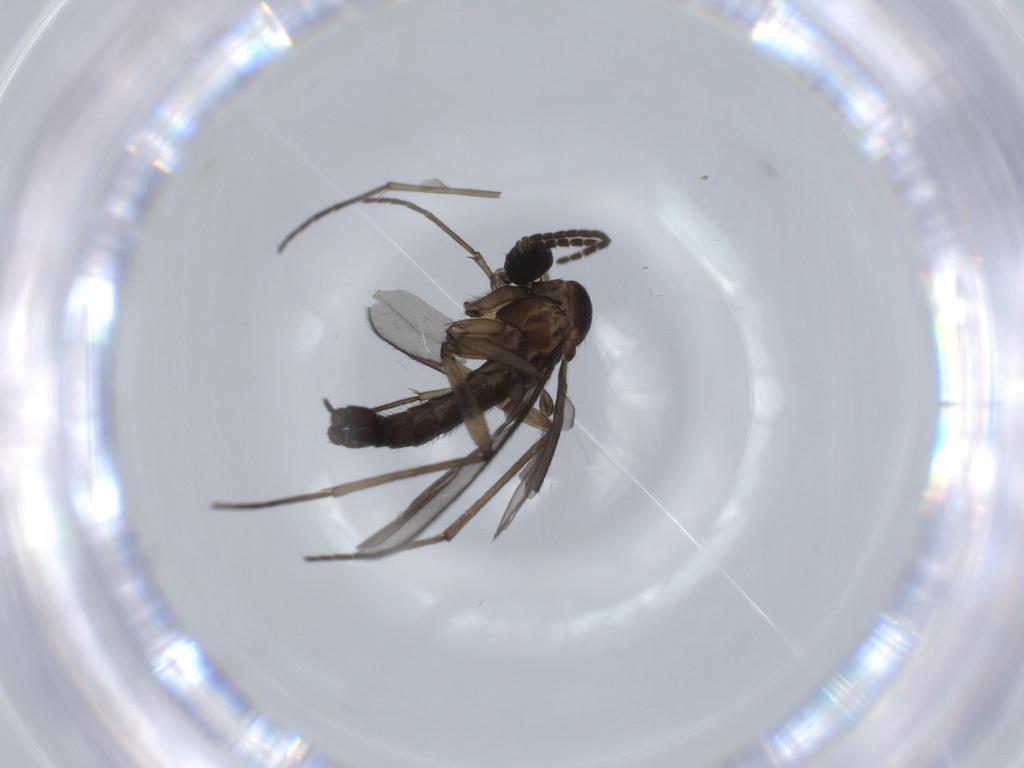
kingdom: Animalia
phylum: Arthropoda
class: Insecta
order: Diptera
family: Sciaridae
